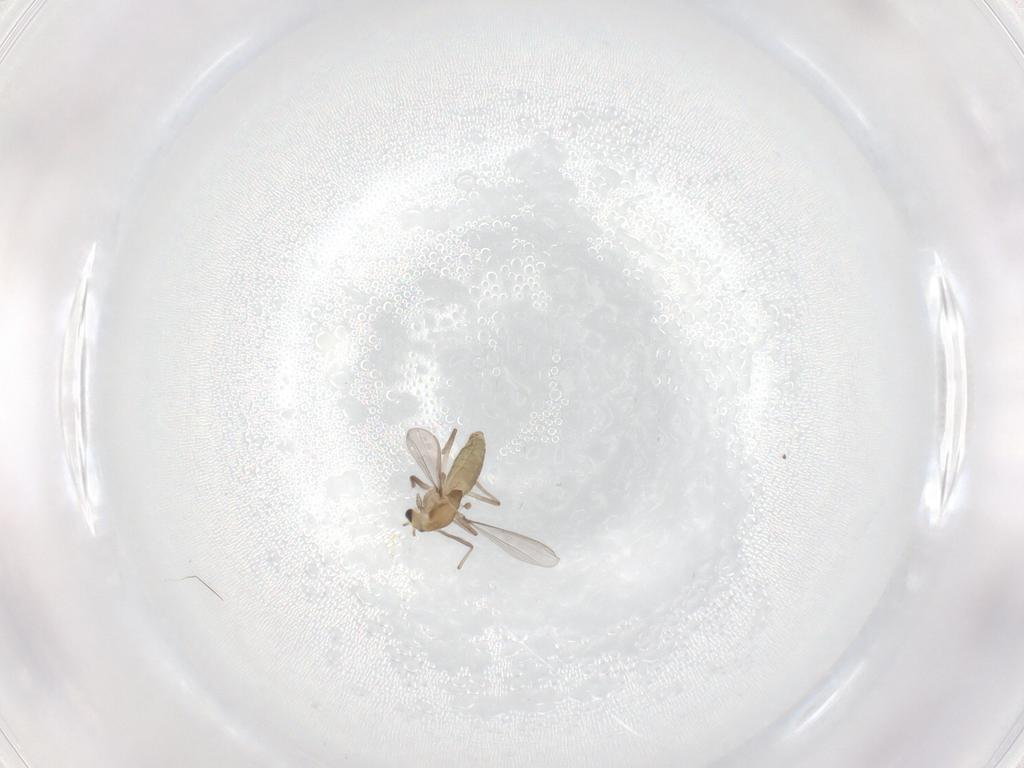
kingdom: Animalia
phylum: Arthropoda
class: Insecta
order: Diptera
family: Chironomidae
